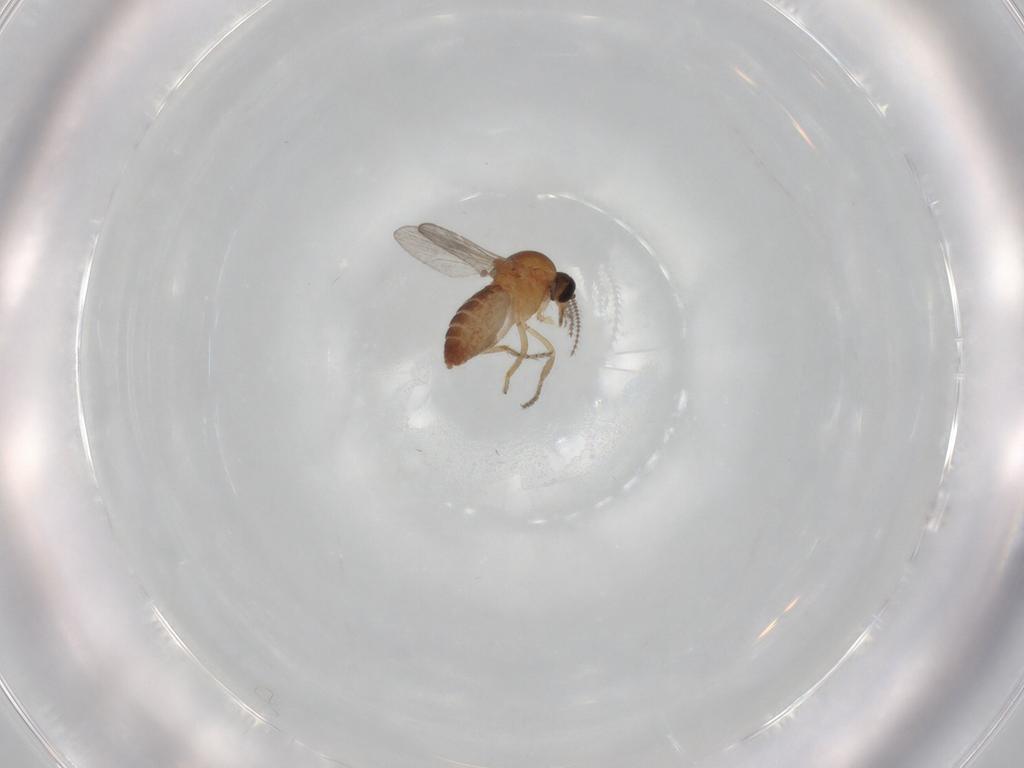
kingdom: Animalia
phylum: Arthropoda
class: Insecta
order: Diptera
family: Ceratopogonidae
